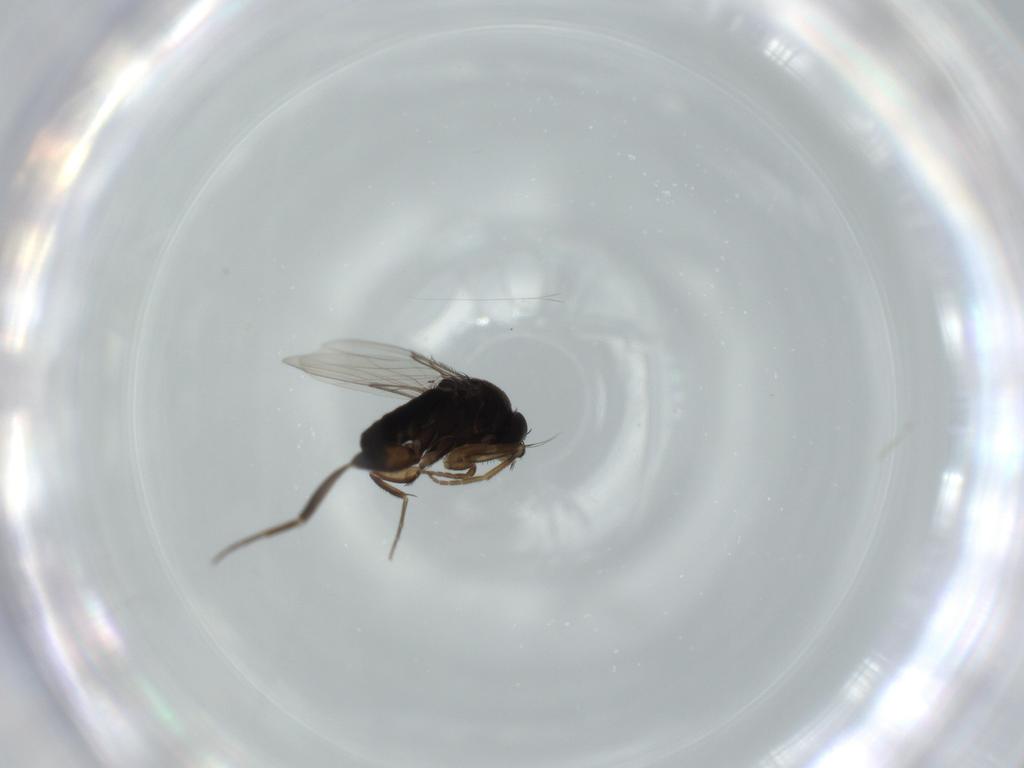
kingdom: Animalia
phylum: Arthropoda
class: Insecta
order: Diptera
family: Phoridae
